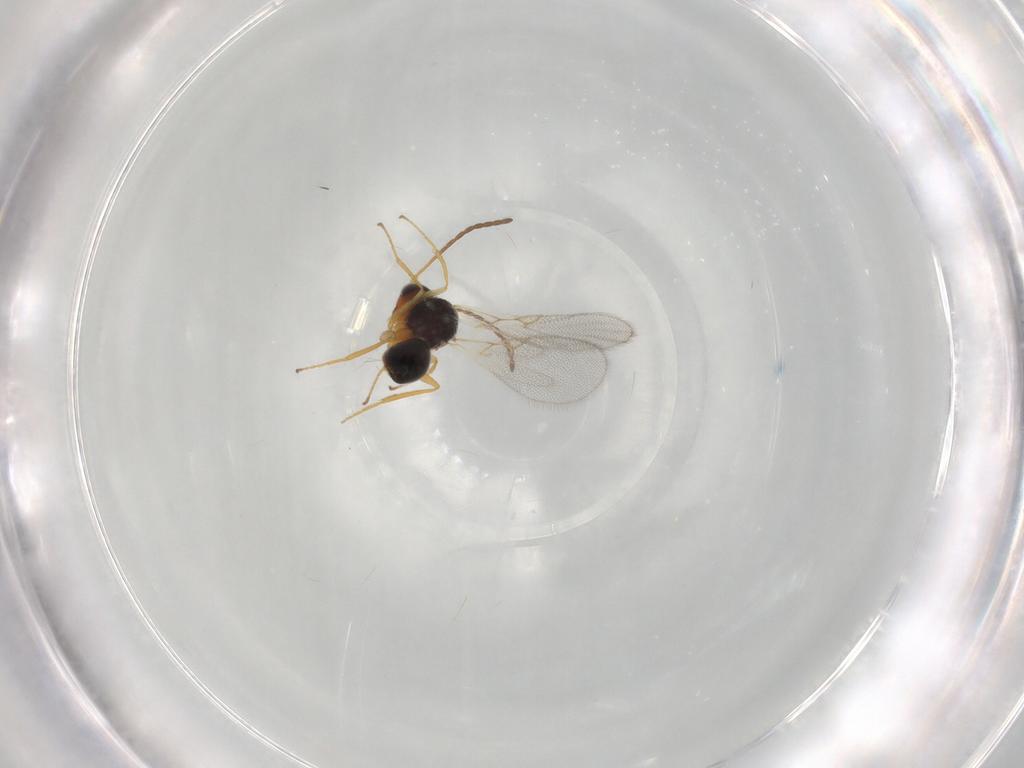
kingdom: Animalia
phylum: Arthropoda
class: Insecta
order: Hymenoptera
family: Figitidae
